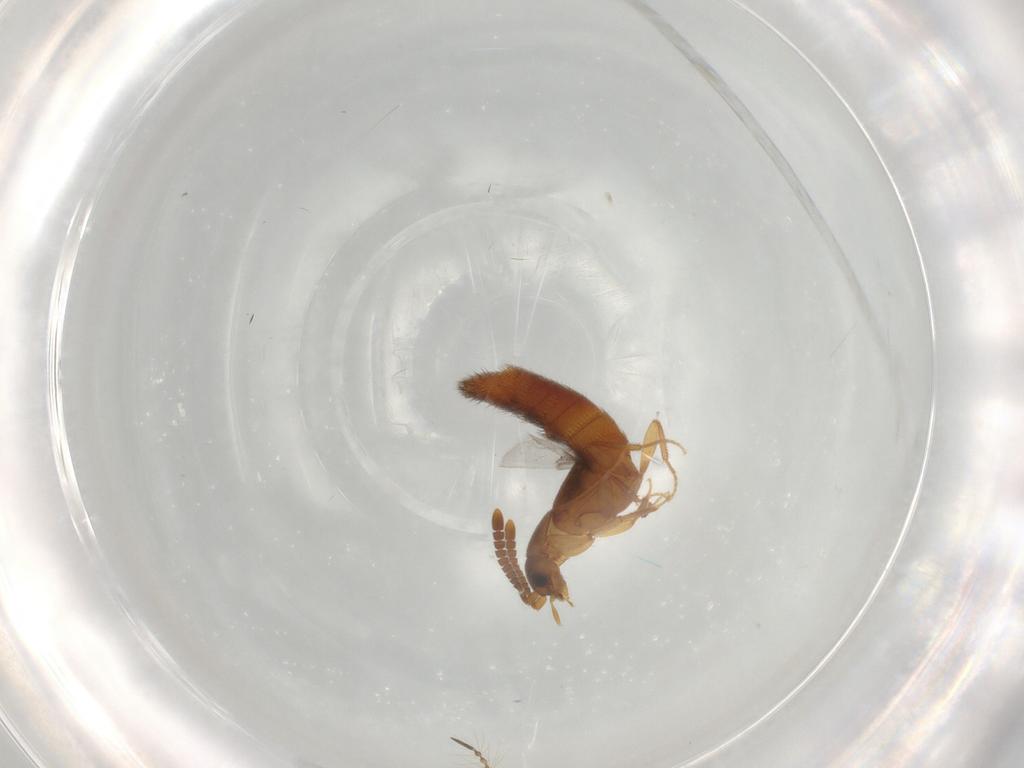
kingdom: Animalia
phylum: Arthropoda
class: Insecta
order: Coleoptera
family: Staphylinidae
